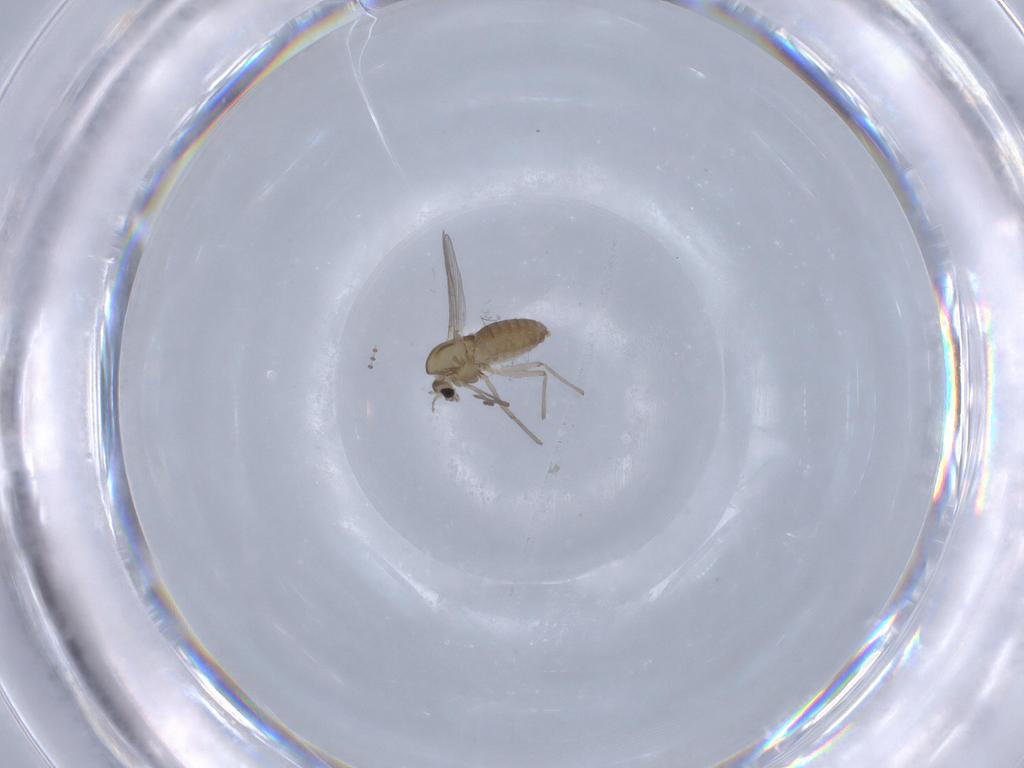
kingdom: Animalia
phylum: Arthropoda
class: Insecta
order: Diptera
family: Chironomidae
